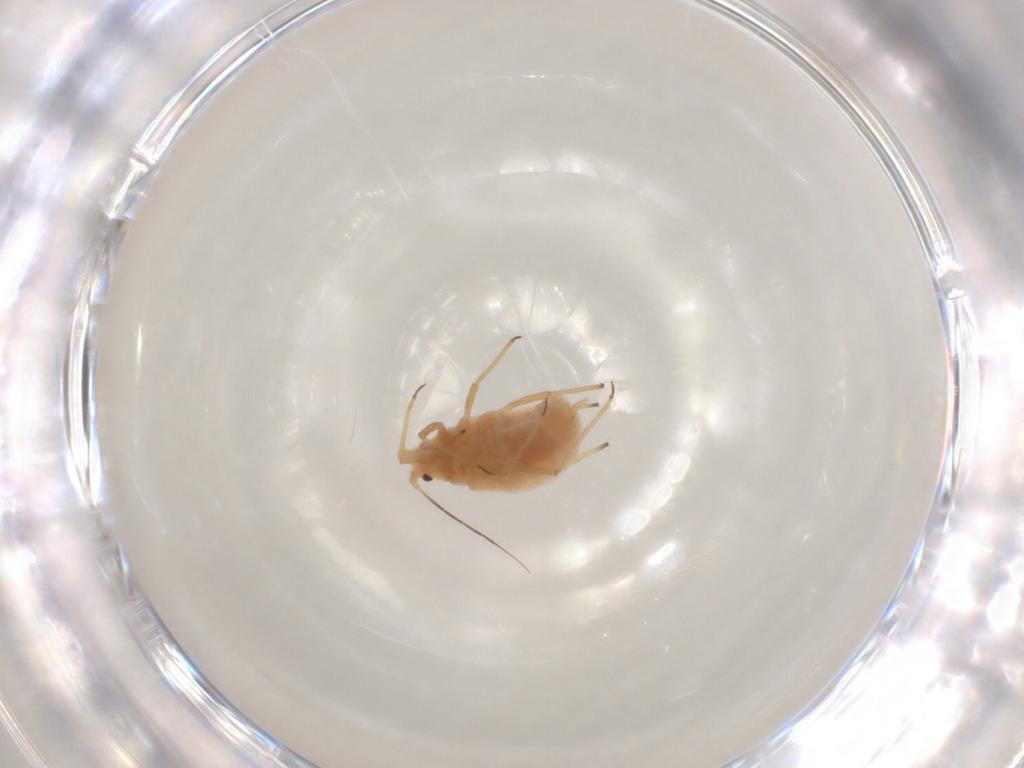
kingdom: Animalia
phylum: Arthropoda
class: Insecta
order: Hemiptera
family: Aphididae
